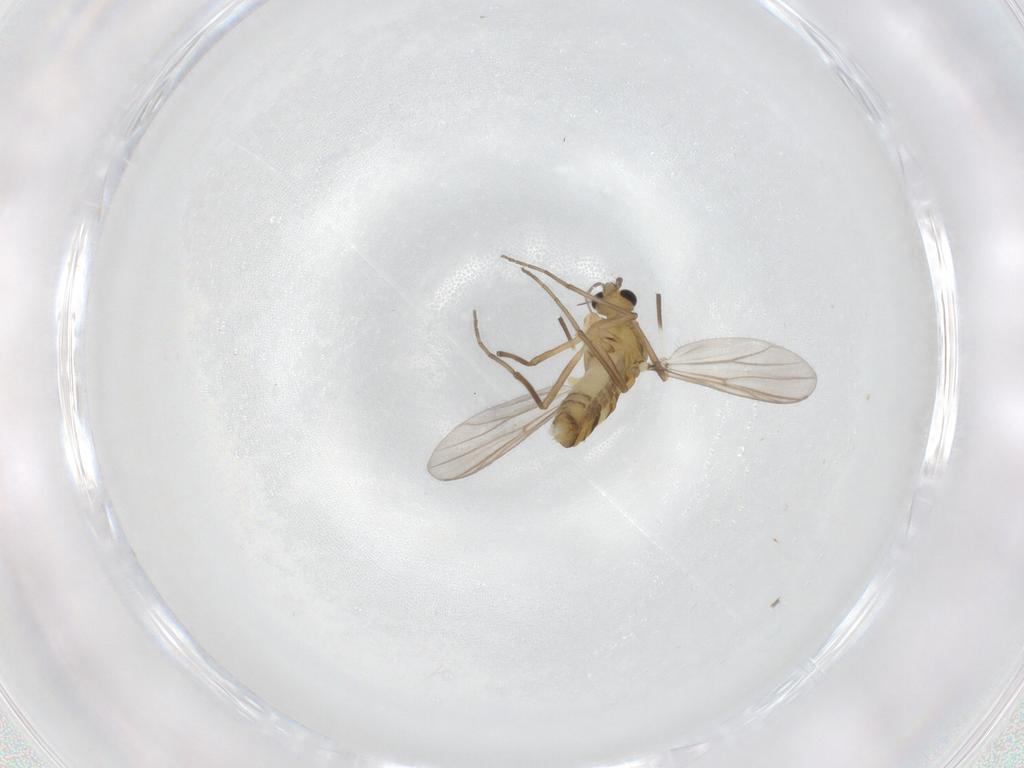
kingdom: Animalia
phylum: Arthropoda
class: Insecta
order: Diptera
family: Chironomidae
